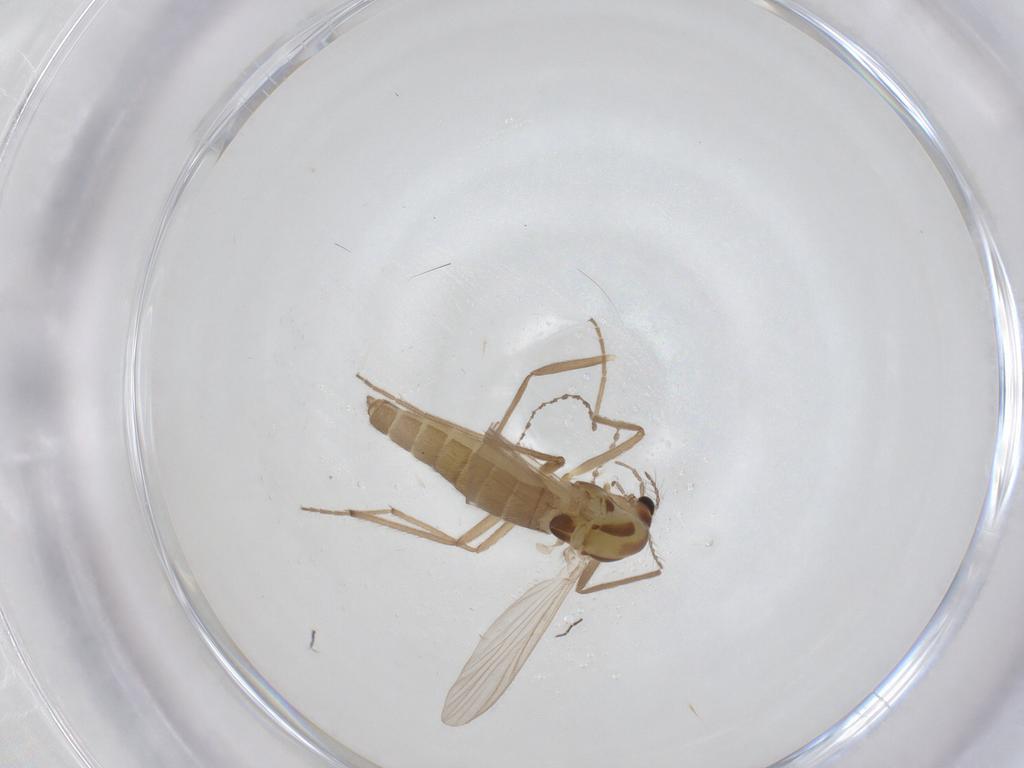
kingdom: Animalia
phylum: Arthropoda
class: Insecta
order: Diptera
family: Chironomidae
